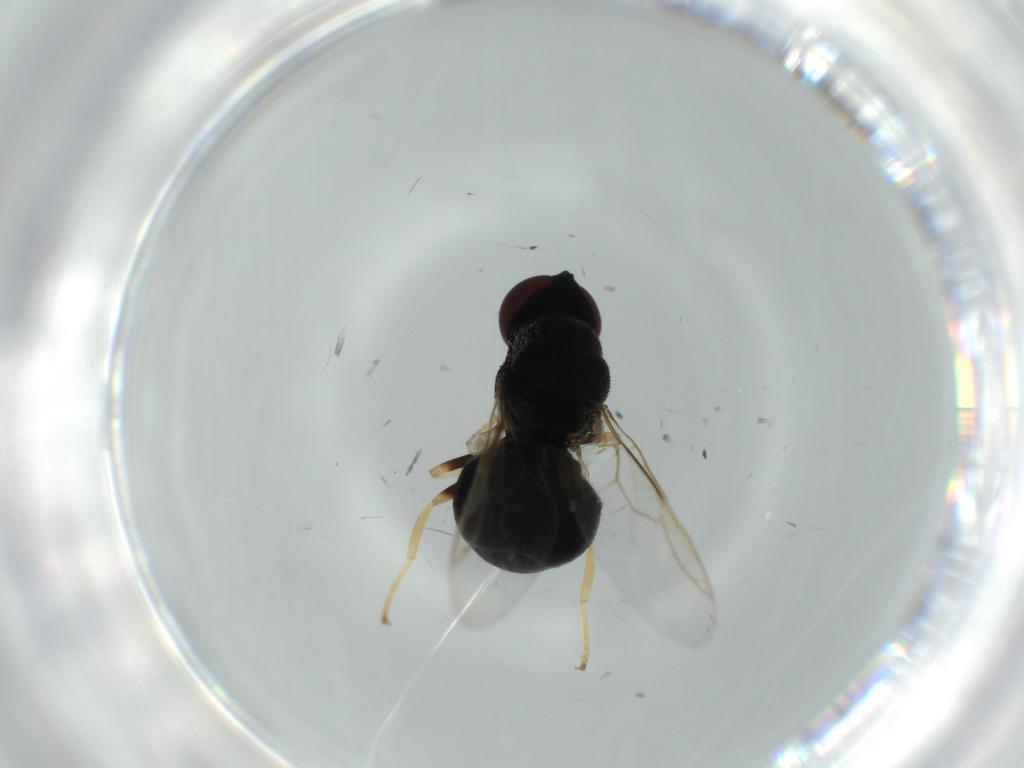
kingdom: Animalia
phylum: Arthropoda
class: Insecta
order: Diptera
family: Stratiomyidae
